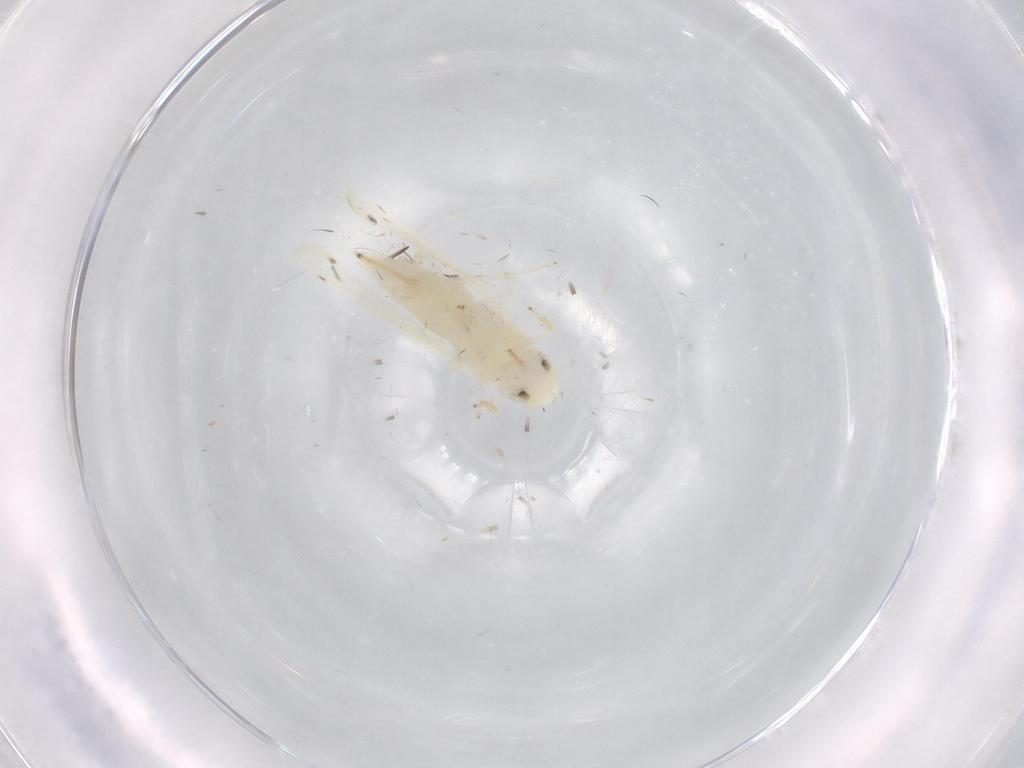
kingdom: Animalia
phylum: Arthropoda
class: Insecta
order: Hemiptera
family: Cicadellidae
